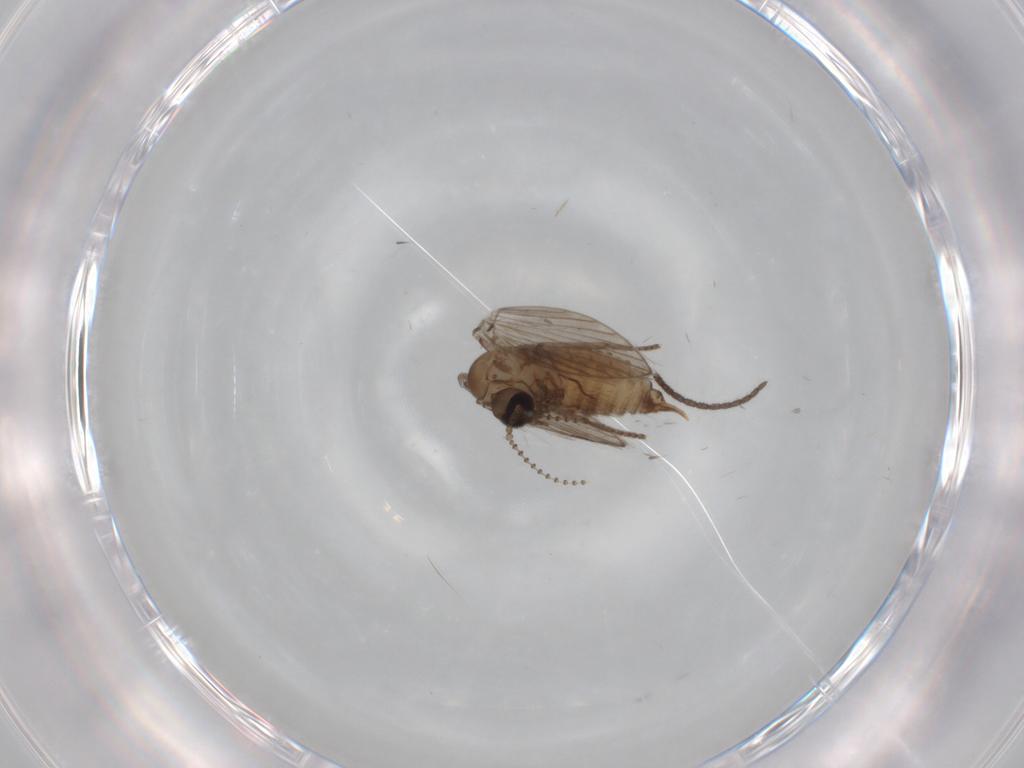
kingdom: Animalia
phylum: Arthropoda
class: Insecta
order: Diptera
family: Psychodidae
